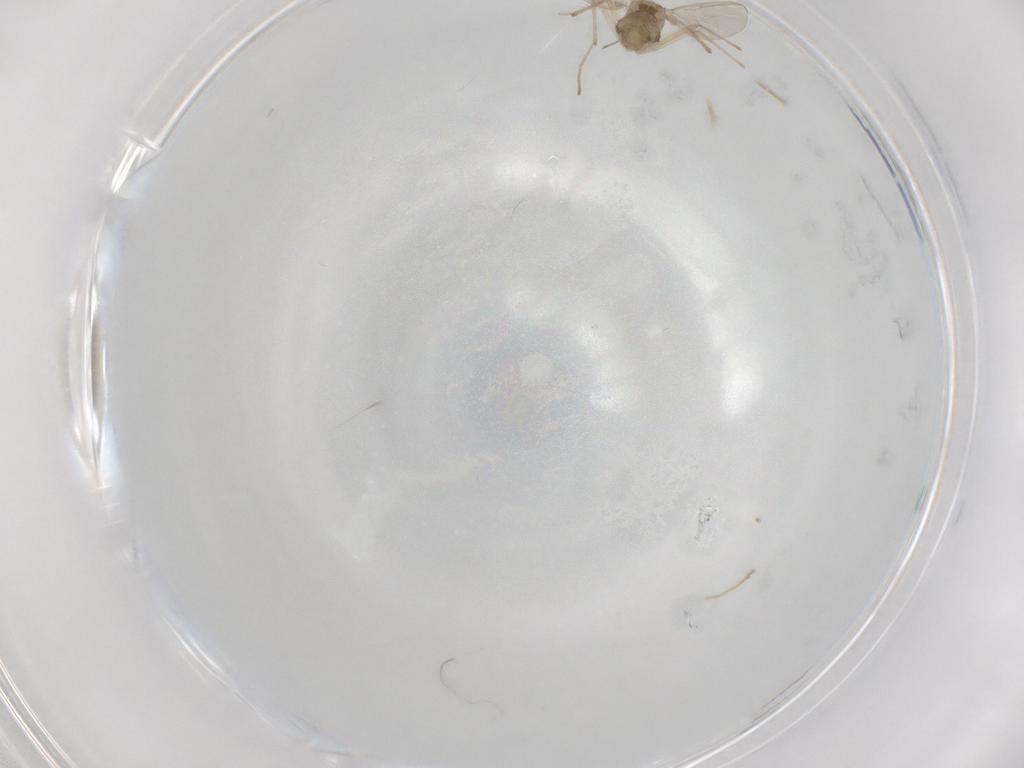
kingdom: Animalia
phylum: Arthropoda
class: Insecta
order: Diptera
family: Chironomidae
